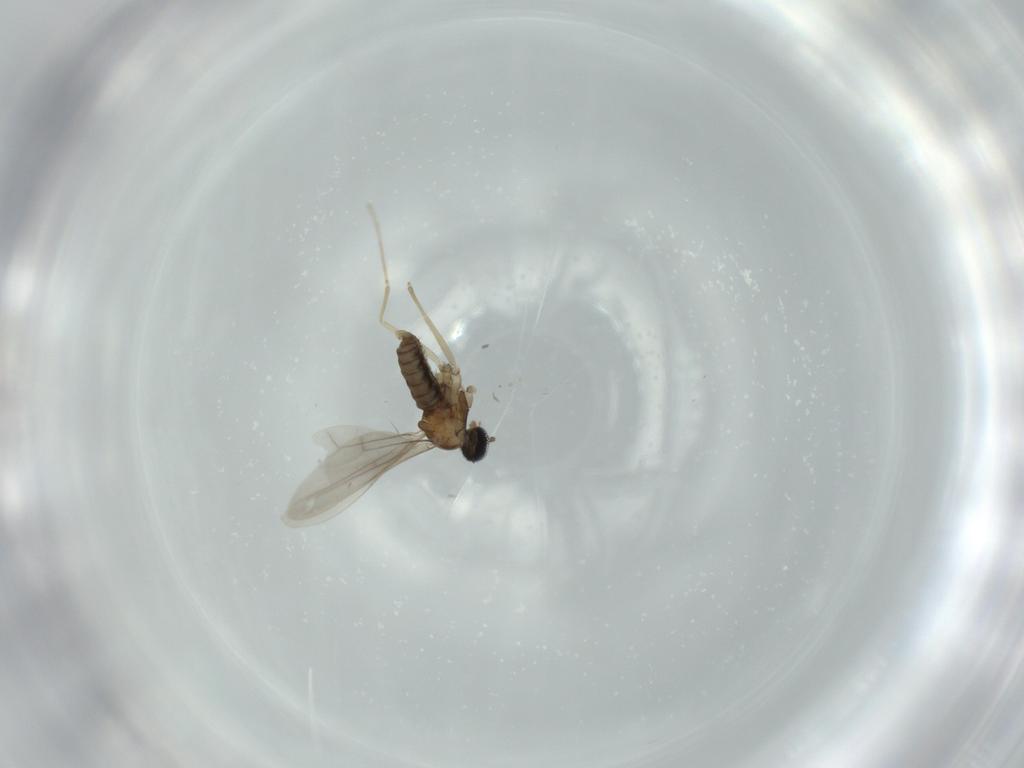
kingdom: Animalia
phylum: Arthropoda
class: Insecta
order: Diptera
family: Cecidomyiidae
